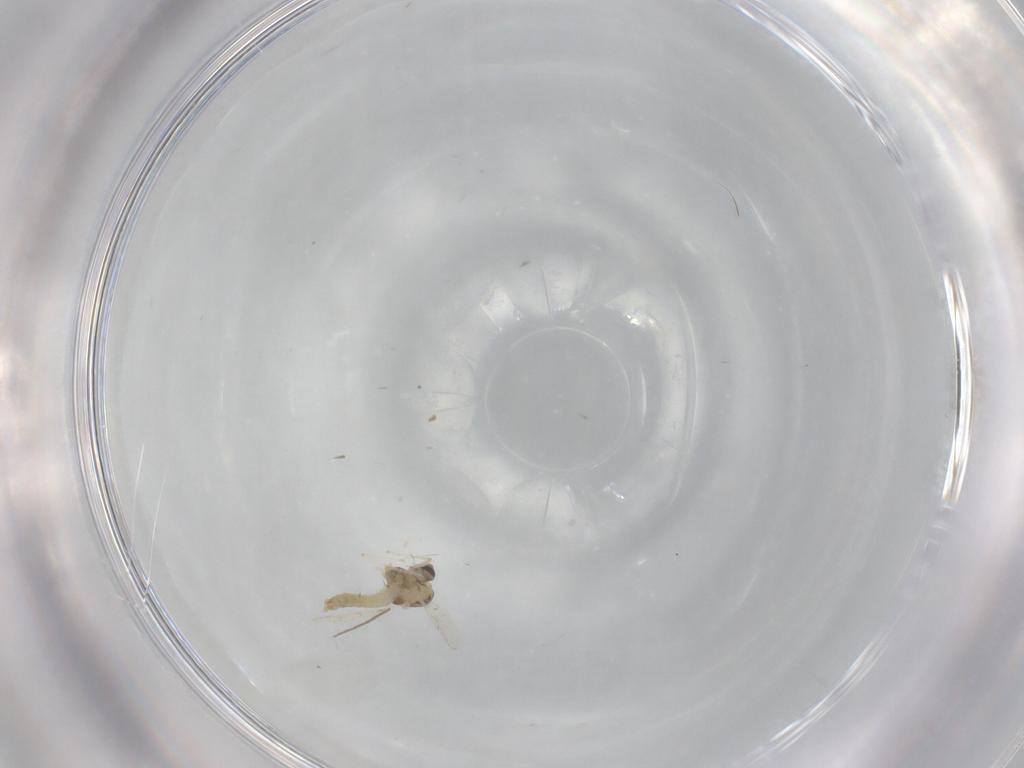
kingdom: Animalia
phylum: Arthropoda
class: Insecta
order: Diptera
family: Chironomidae
